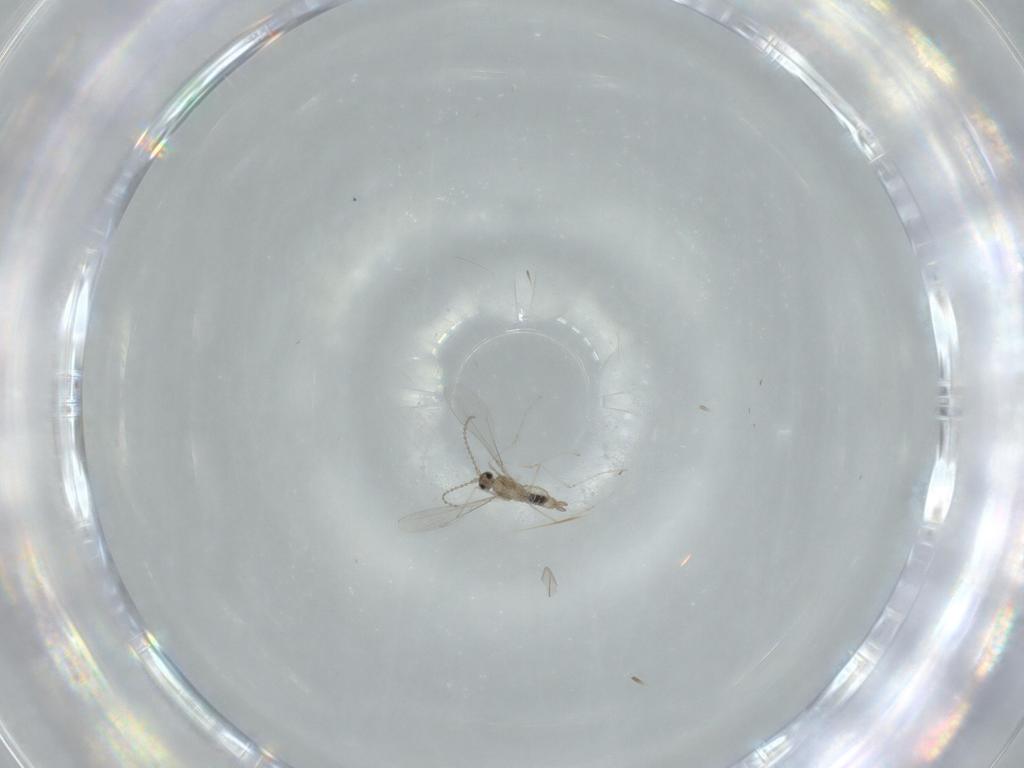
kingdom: Animalia
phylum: Arthropoda
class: Insecta
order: Diptera
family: Cecidomyiidae
